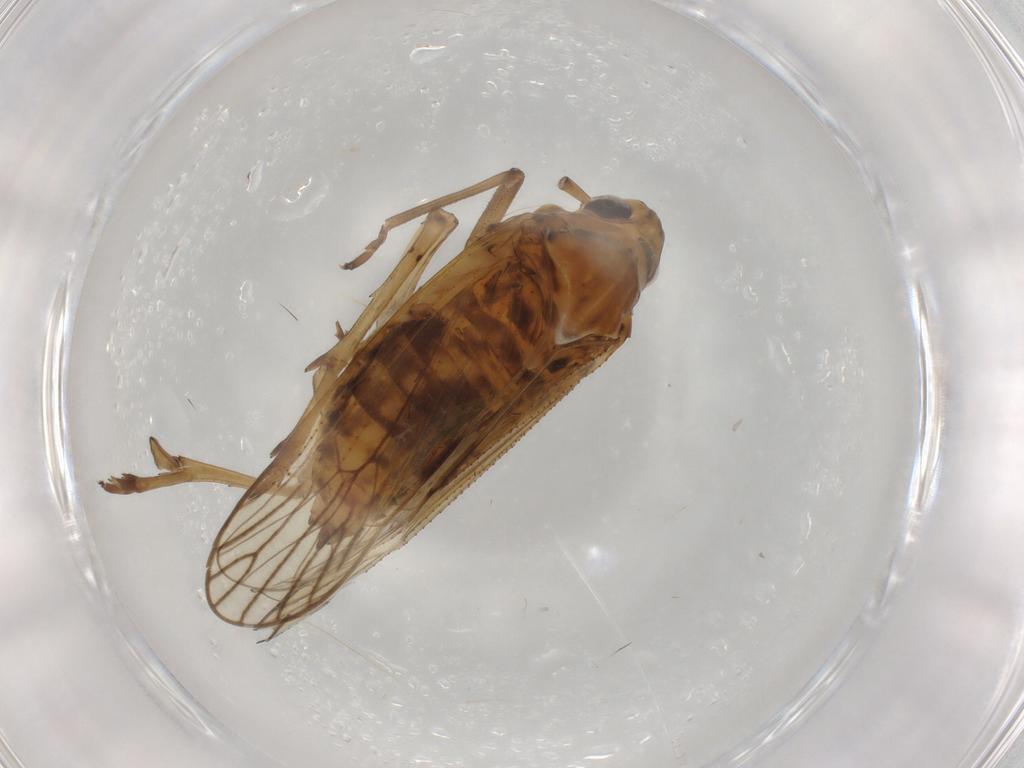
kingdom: Animalia
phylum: Arthropoda
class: Insecta
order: Hemiptera
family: Delphacidae
